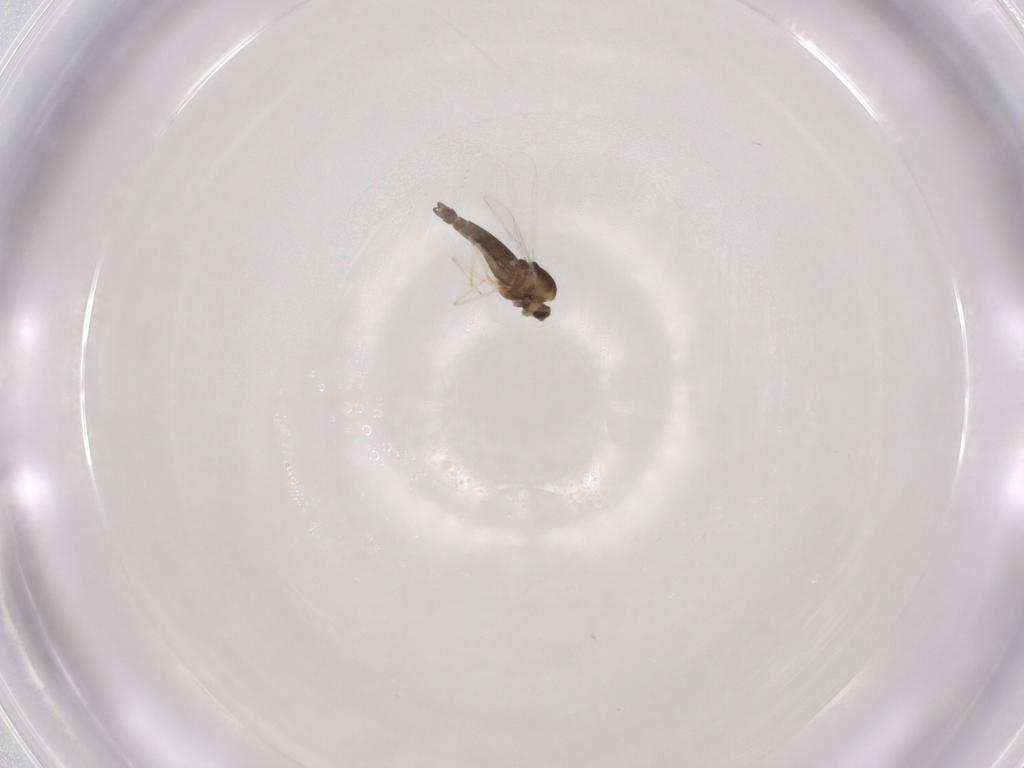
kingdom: Animalia
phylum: Arthropoda
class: Insecta
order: Diptera
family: Chironomidae
